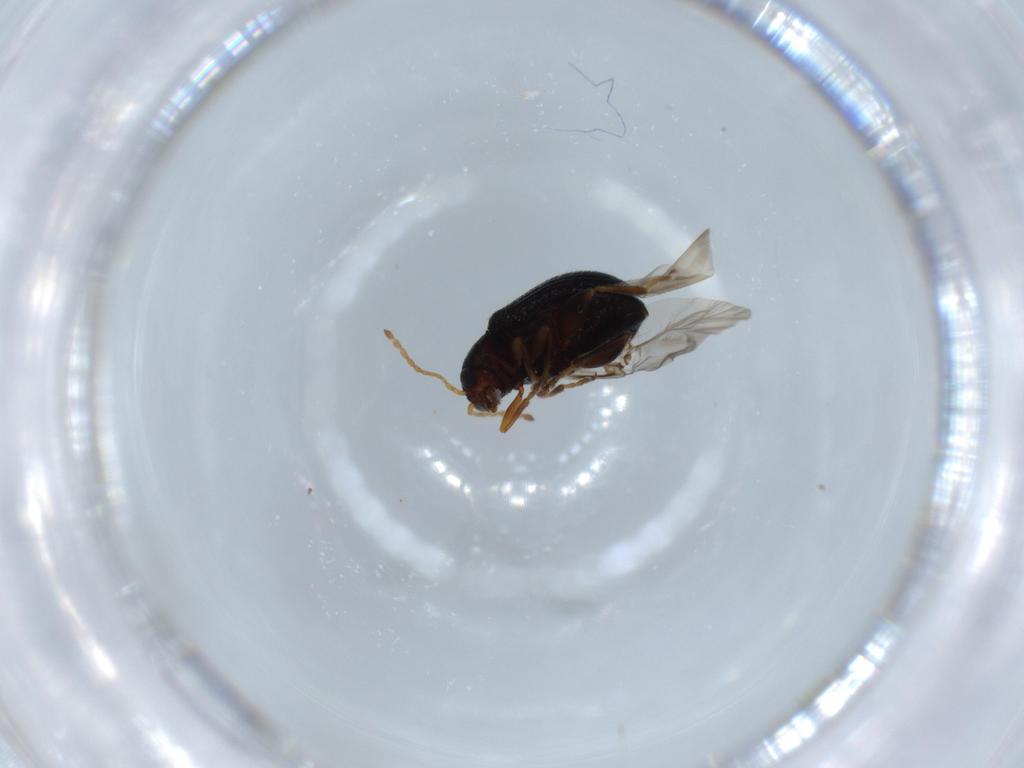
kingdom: Animalia
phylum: Arthropoda
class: Insecta
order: Coleoptera
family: Chrysomelidae
